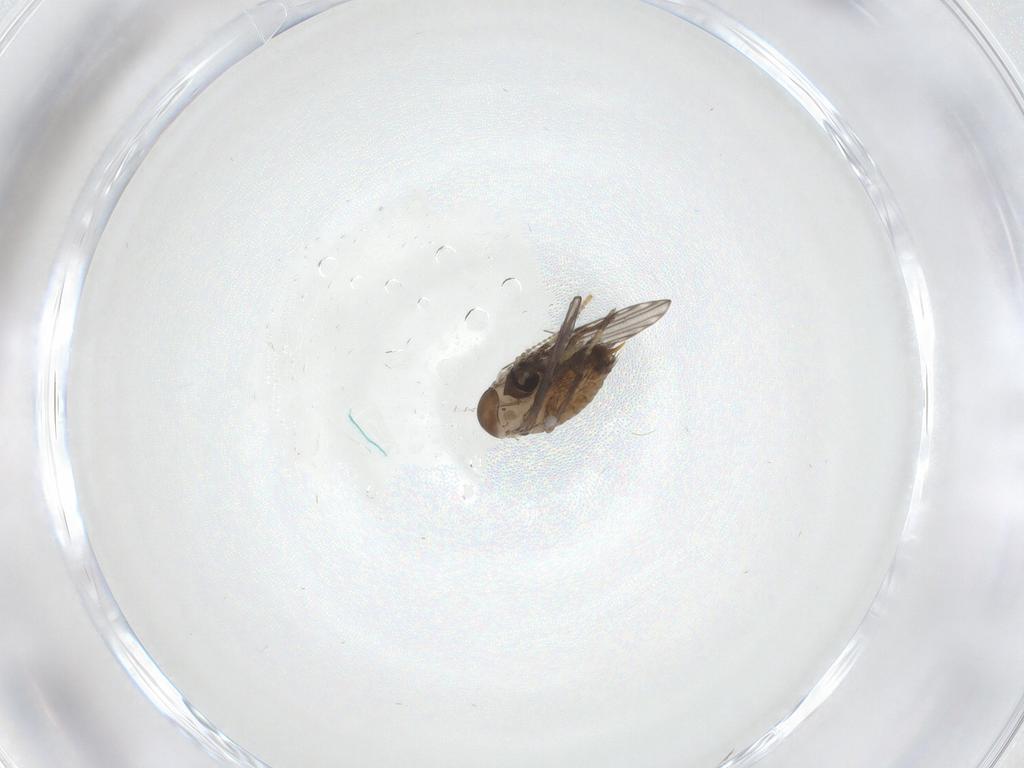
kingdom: Animalia
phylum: Arthropoda
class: Insecta
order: Diptera
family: Psychodidae
